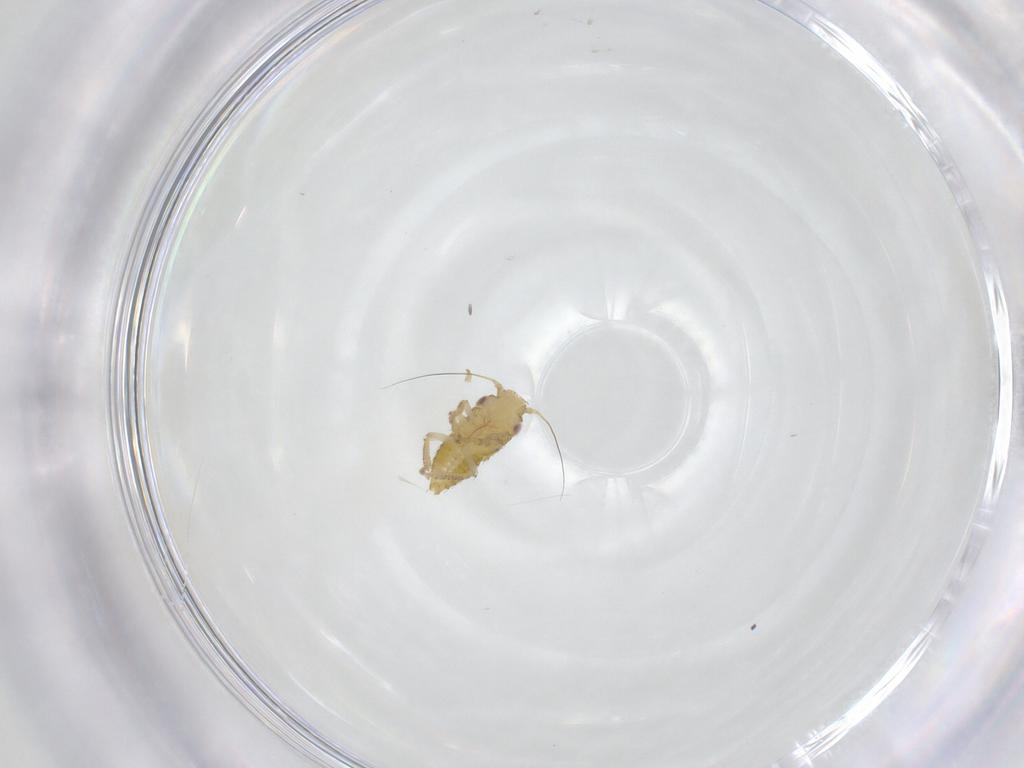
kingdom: Animalia
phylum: Arthropoda
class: Insecta
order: Hemiptera
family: Cicadellidae
